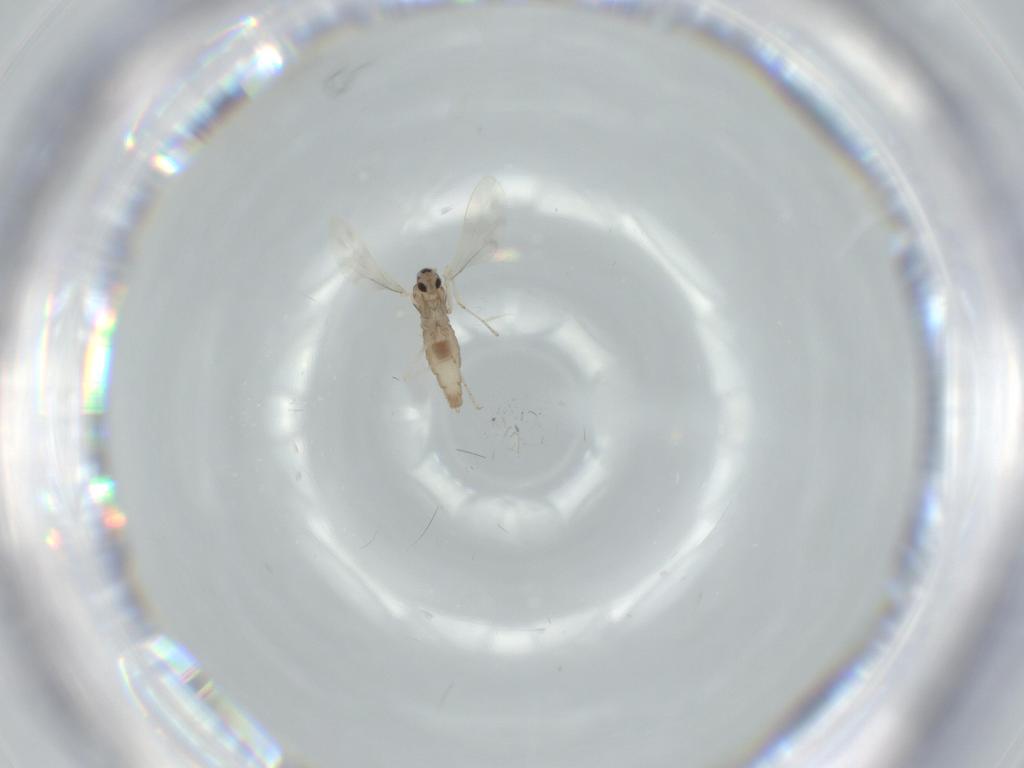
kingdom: Animalia
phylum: Arthropoda
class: Insecta
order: Diptera
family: Cecidomyiidae
